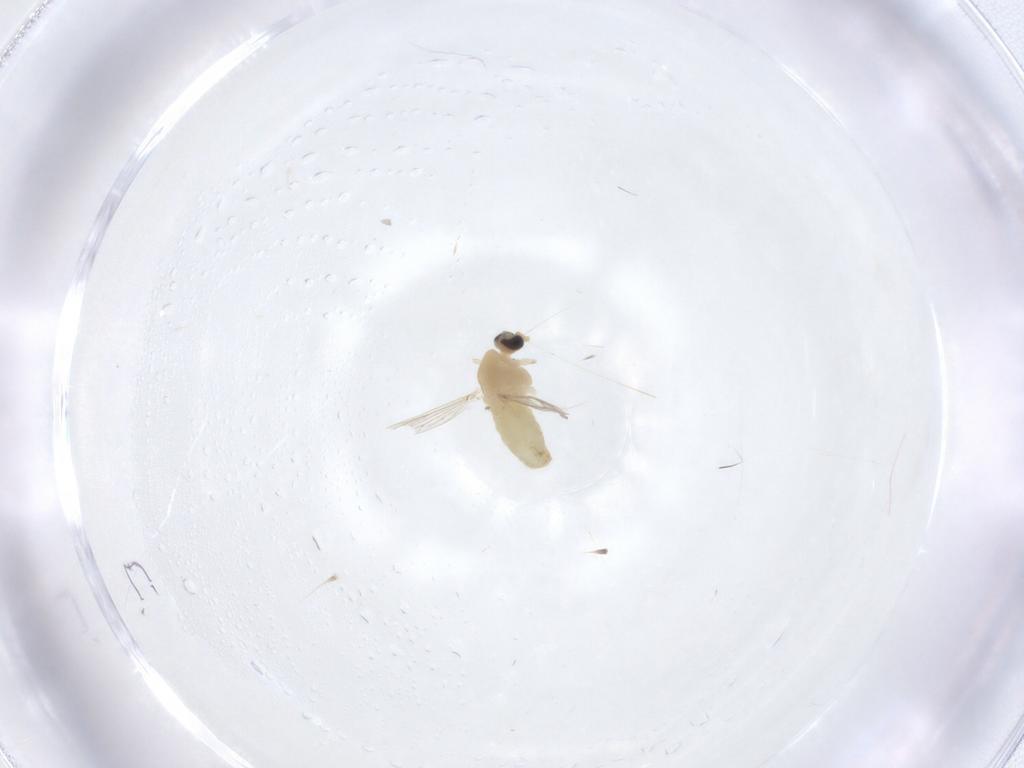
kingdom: Animalia
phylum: Arthropoda
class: Insecta
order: Diptera
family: Chironomidae
